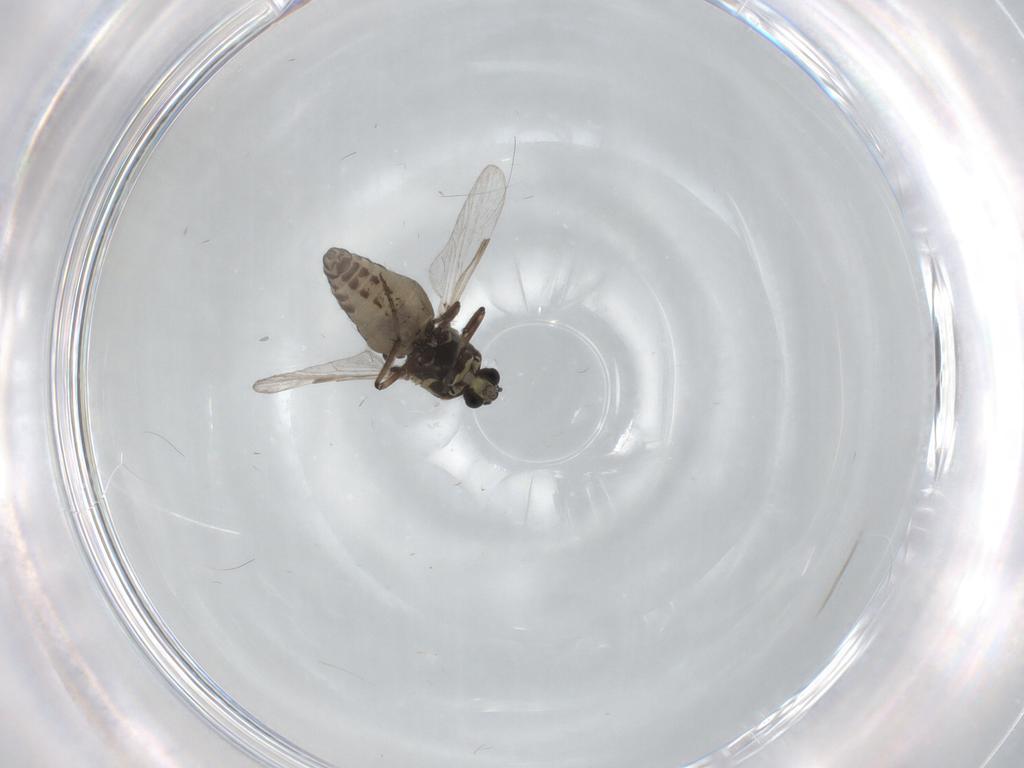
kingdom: Animalia
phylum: Arthropoda
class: Insecta
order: Diptera
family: Ceratopogonidae
